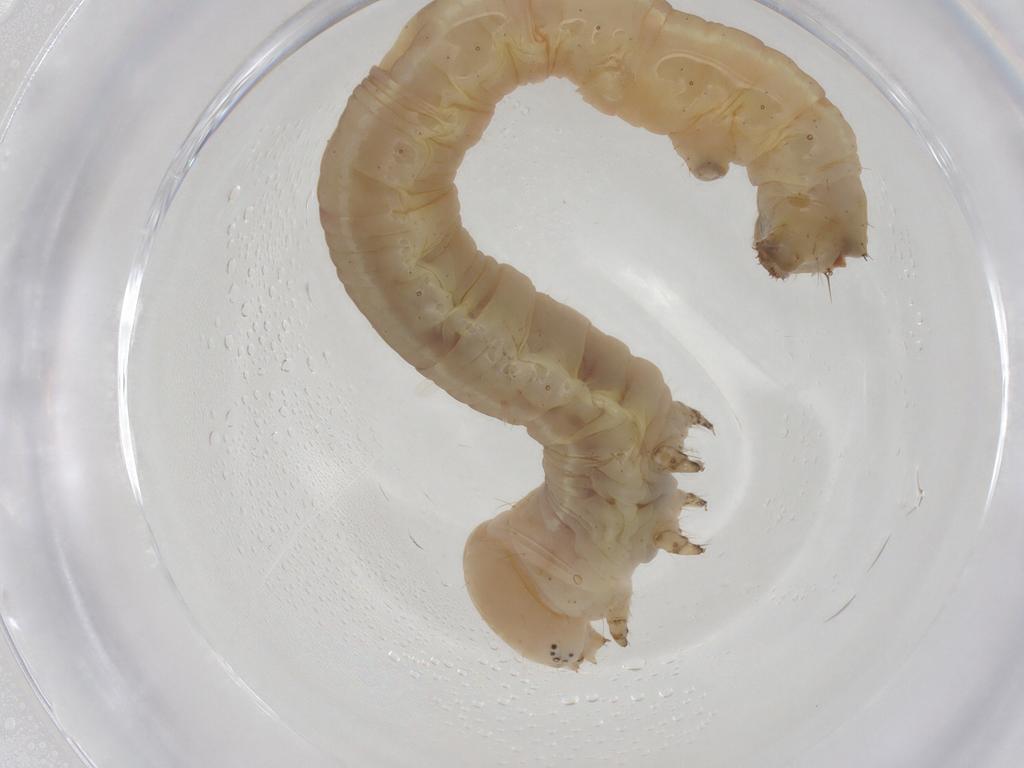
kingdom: Animalia
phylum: Arthropoda
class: Insecta
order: Lepidoptera
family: Geometridae
